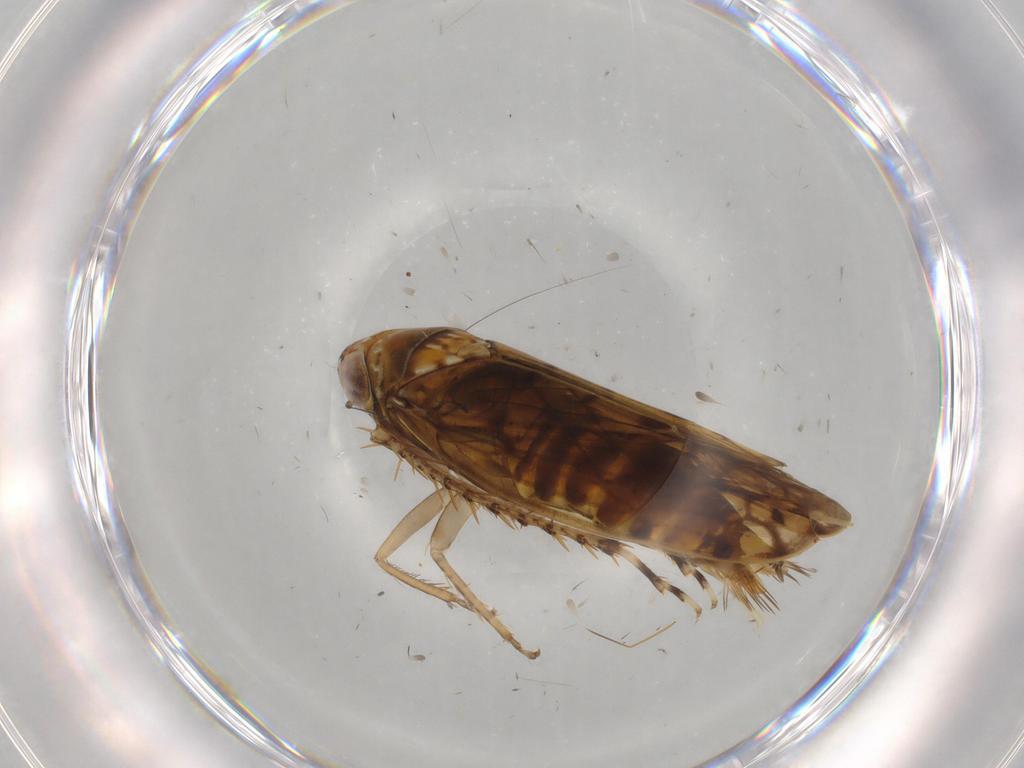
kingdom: Animalia
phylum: Arthropoda
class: Insecta
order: Hemiptera
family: Cicadellidae
